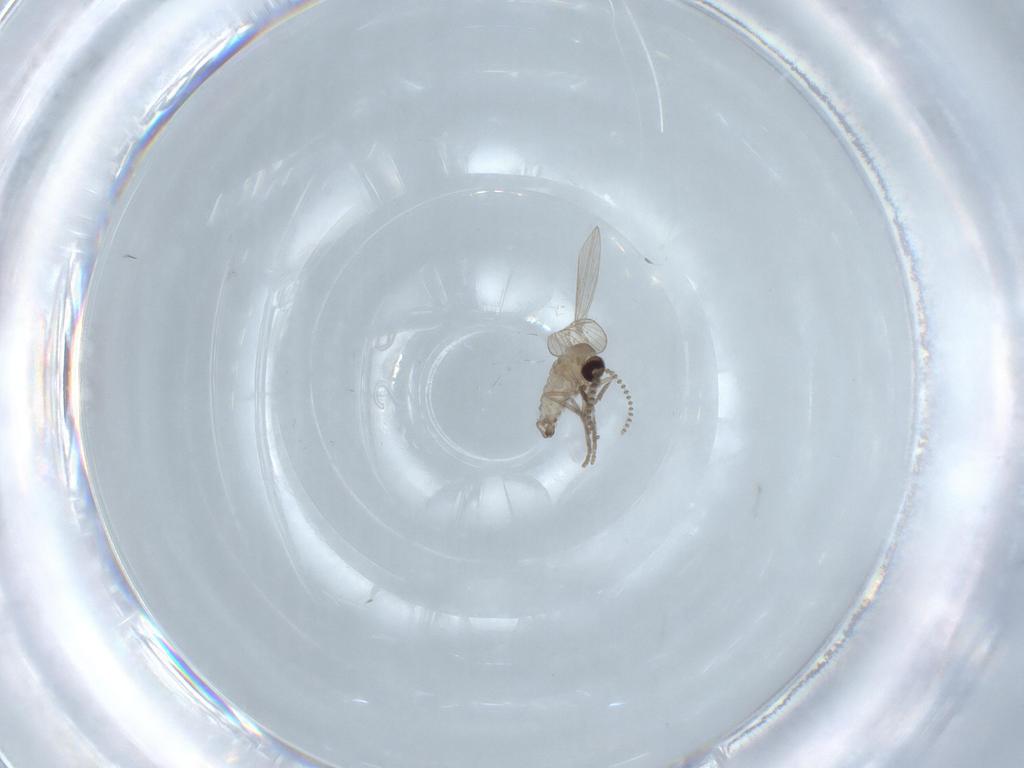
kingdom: Animalia
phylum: Arthropoda
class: Insecta
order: Diptera
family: Psychodidae
